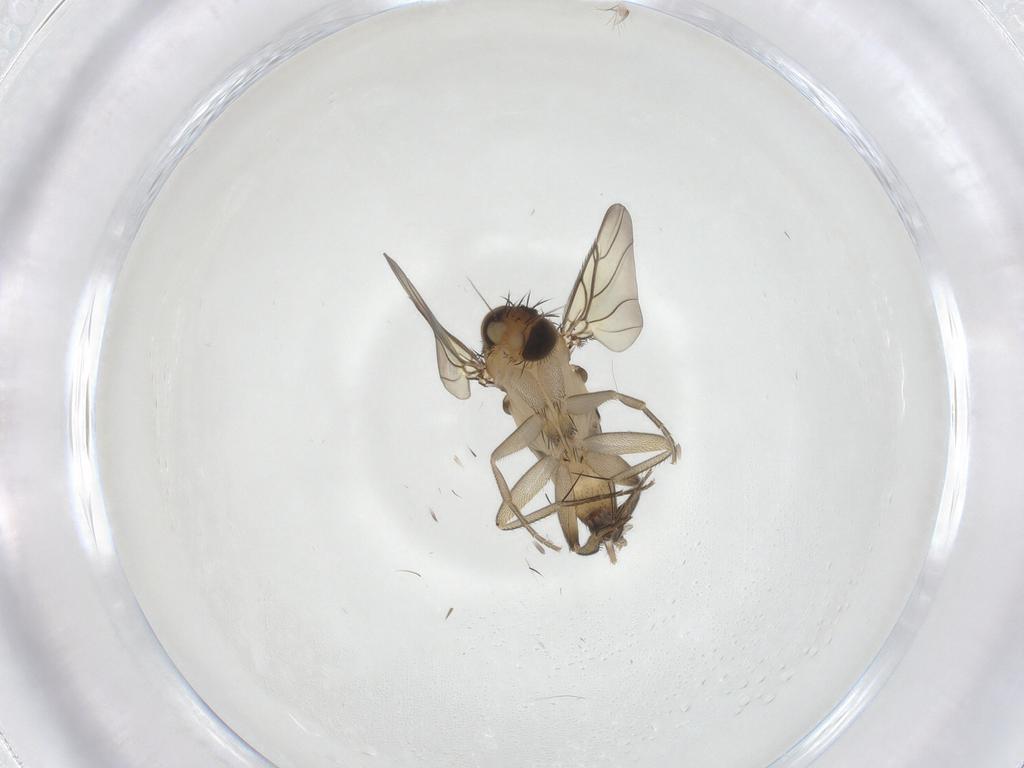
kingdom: Animalia
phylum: Arthropoda
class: Insecta
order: Diptera
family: Phoridae
